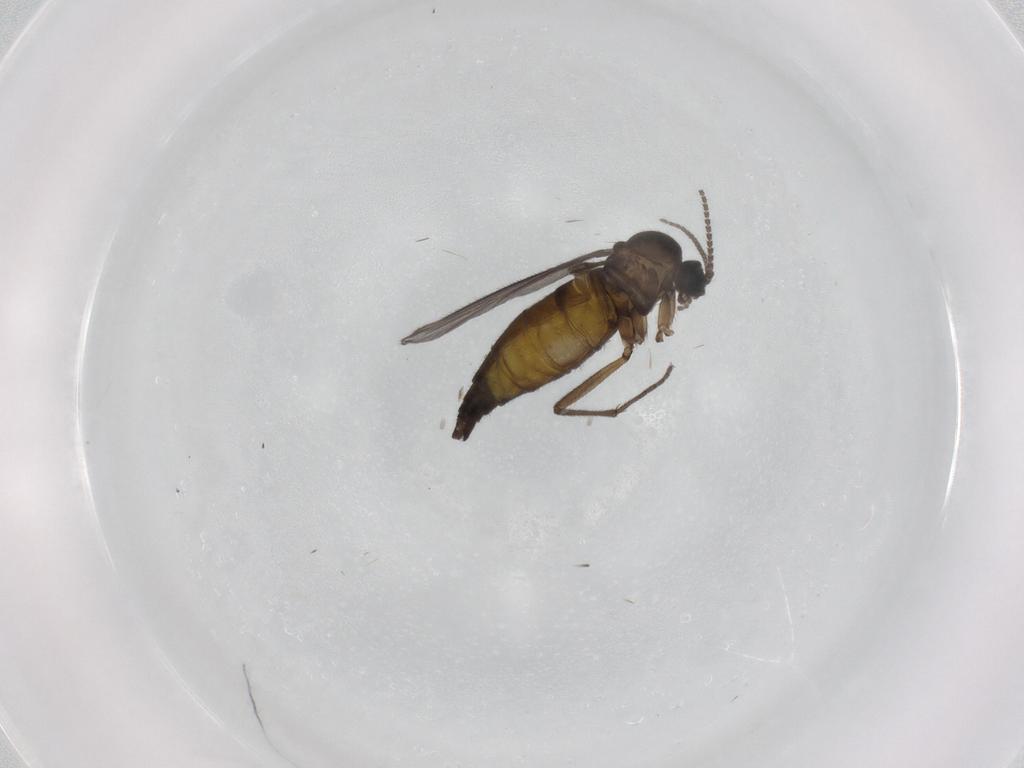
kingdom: Animalia
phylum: Arthropoda
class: Insecta
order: Diptera
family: Sciaridae
